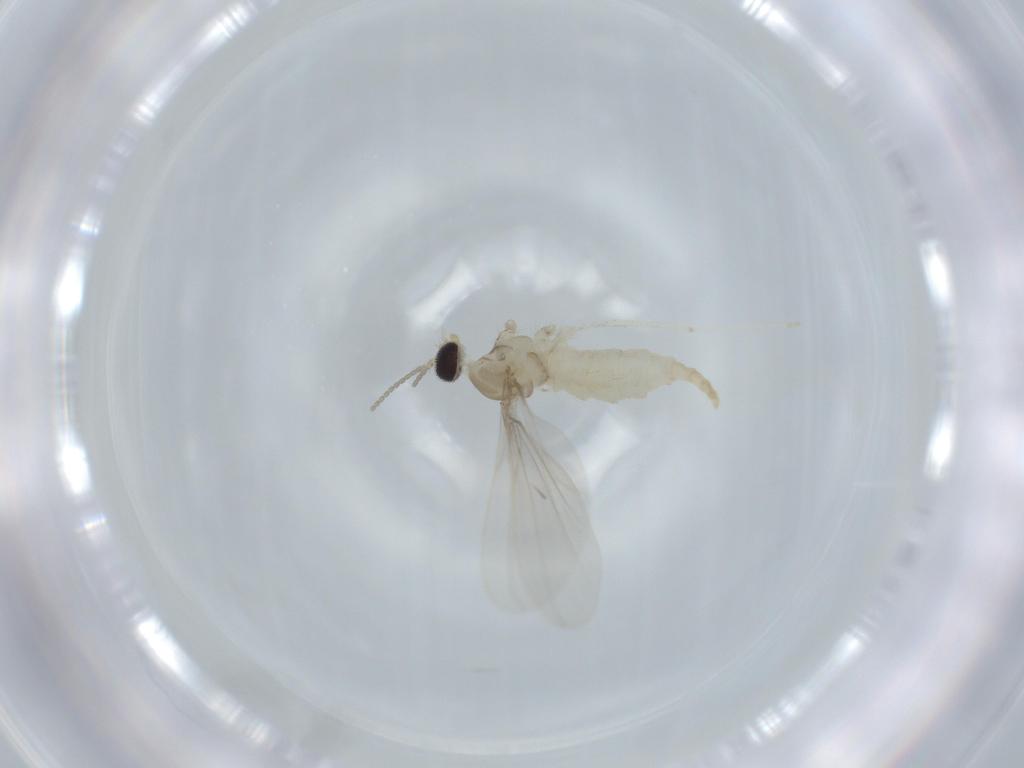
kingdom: Animalia
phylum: Arthropoda
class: Insecta
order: Diptera
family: Cecidomyiidae
